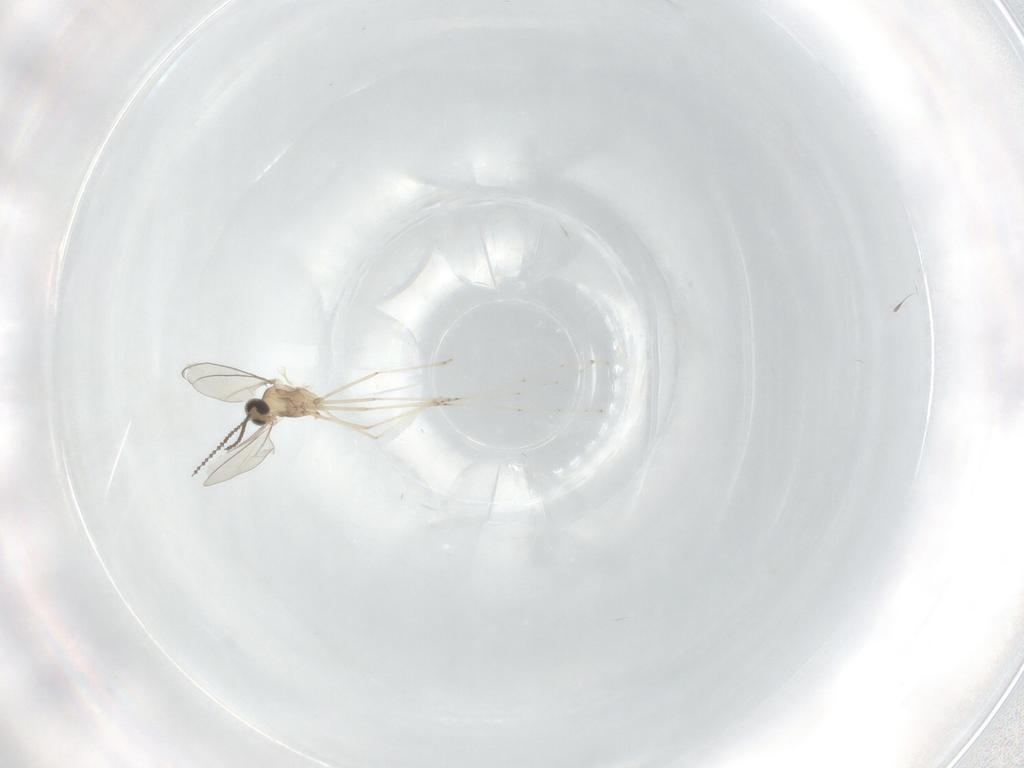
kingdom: Animalia
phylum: Arthropoda
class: Insecta
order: Diptera
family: Cecidomyiidae
